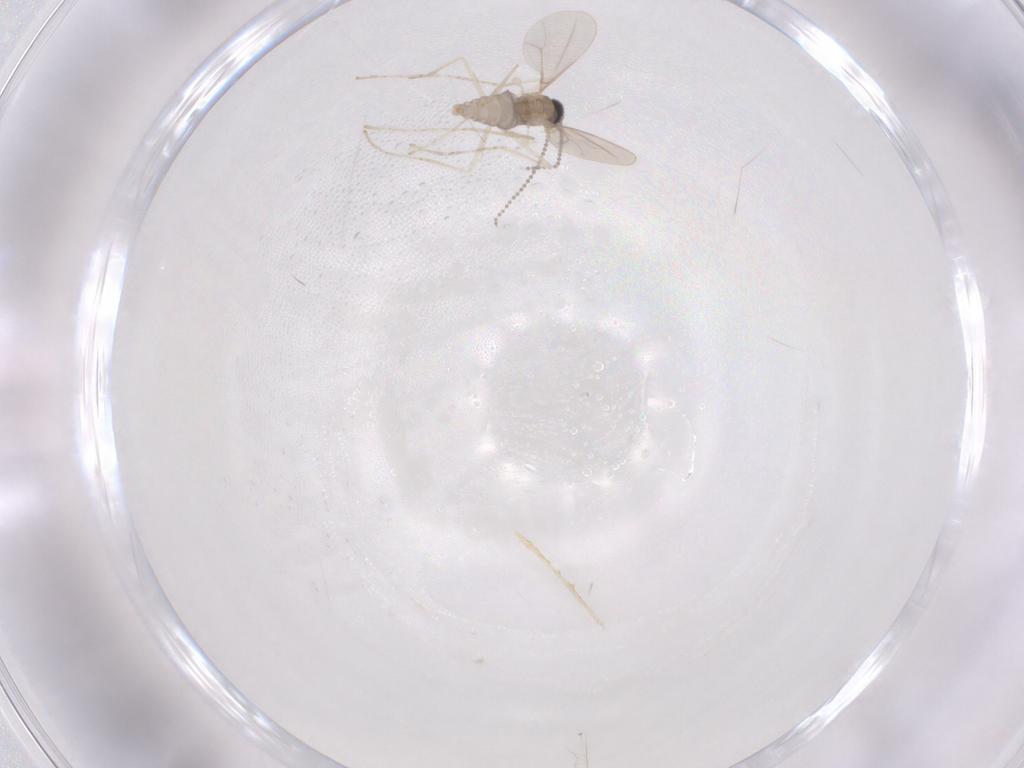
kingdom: Animalia
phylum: Arthropoda
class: Insecta
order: Diptera
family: Cecidomyiidae
